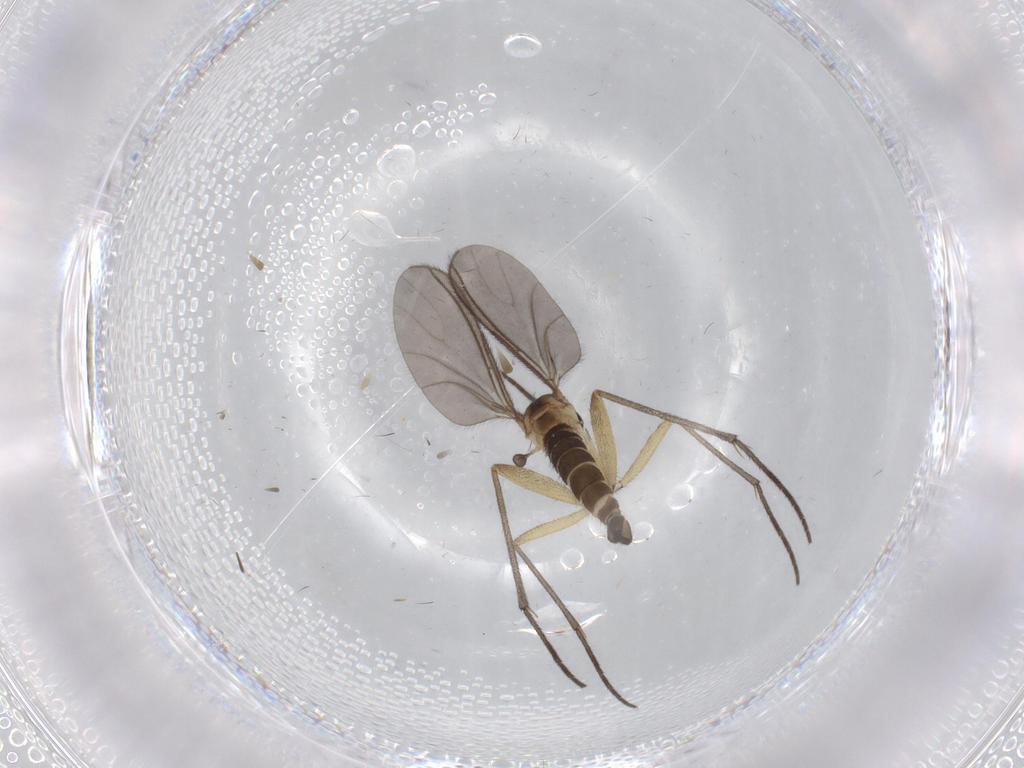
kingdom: Animalia
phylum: Arthropoda
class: Insecta
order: Diptera
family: Sciaridae
